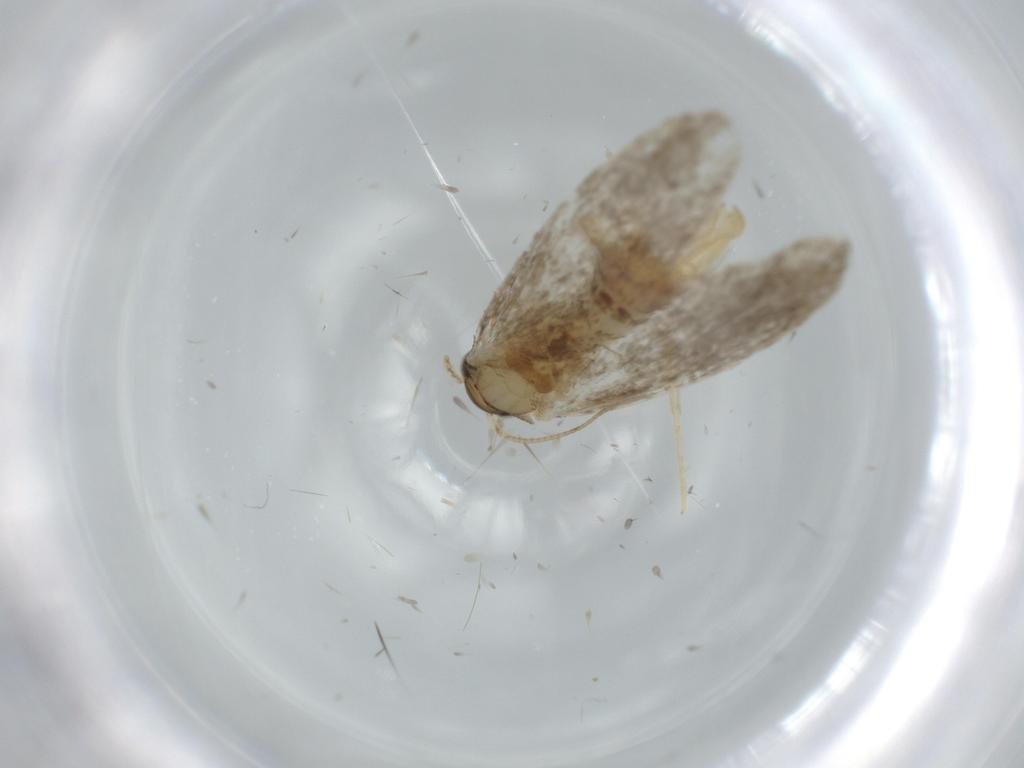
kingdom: Animalia
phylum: Arthropoda
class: Insecta
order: Lepidoptera
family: Tineidae
